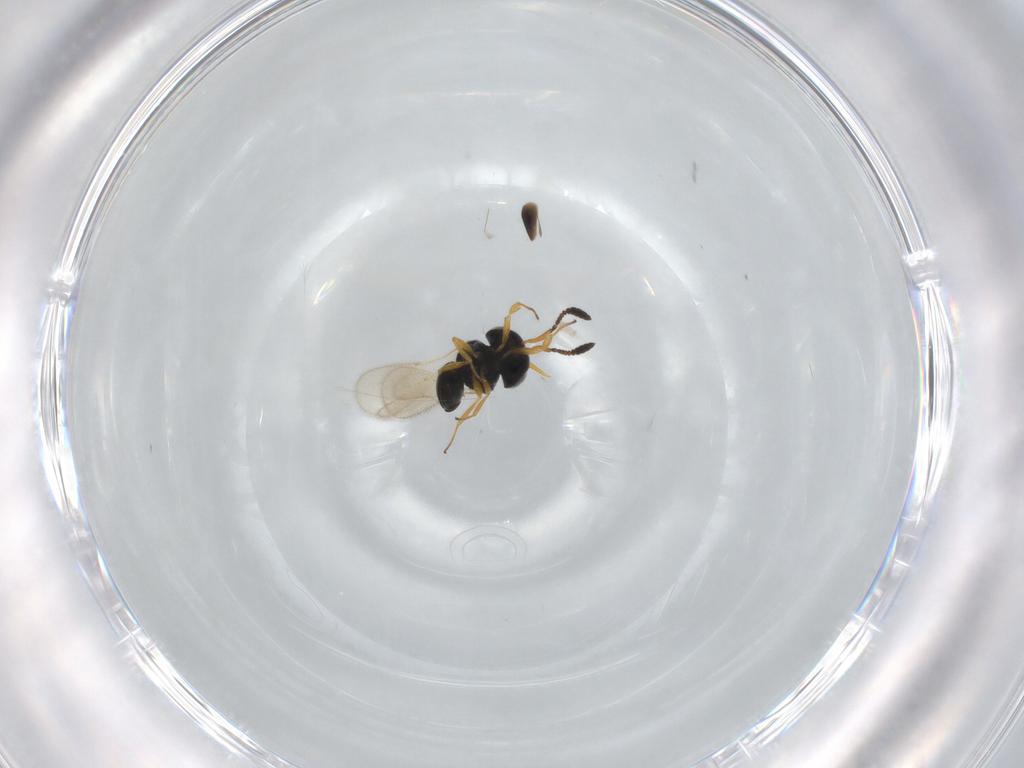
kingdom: Animalia
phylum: Arthropoda
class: Insecta
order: Hymenoptera
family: Scelionidae
